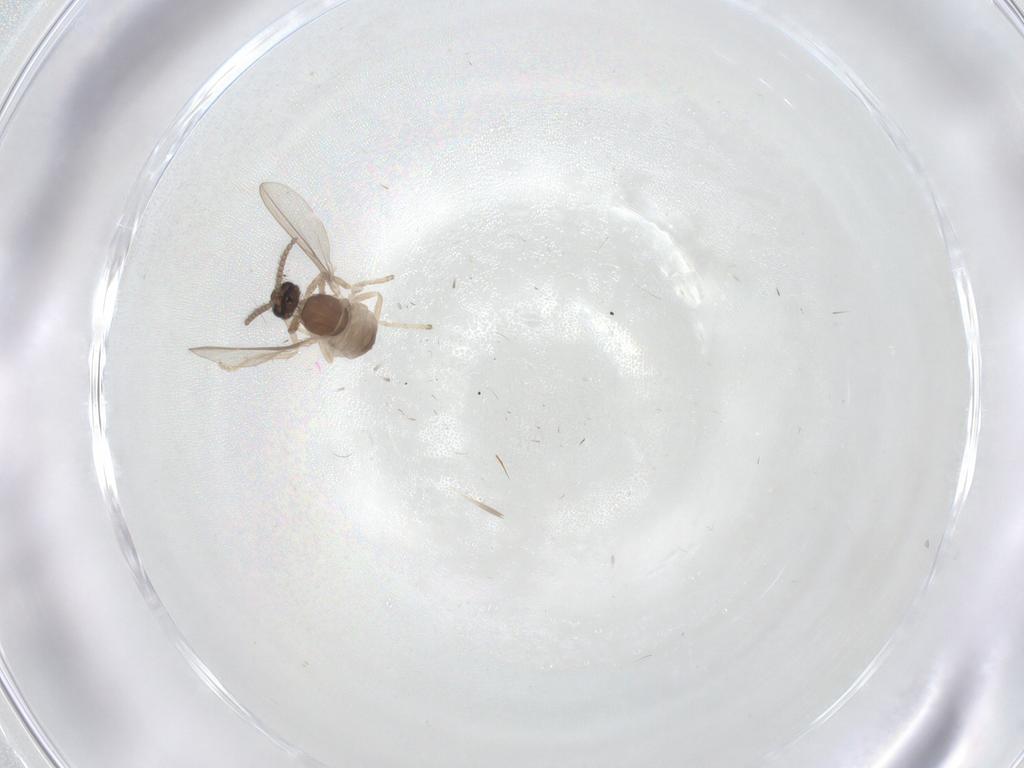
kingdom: Animalia
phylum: Arthropoda
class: Insecta
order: Diptera
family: Cecidomyiidae
